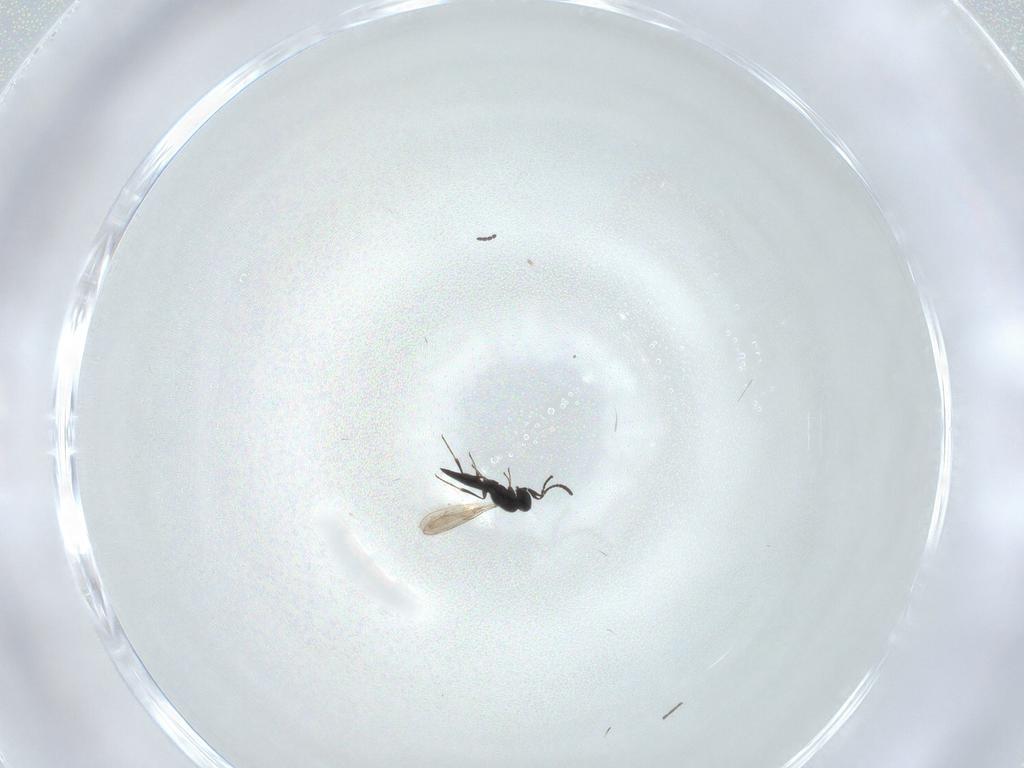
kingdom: Animalia
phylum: Arthropoda
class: Insecta
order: Hymenoptera
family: Scelionidae
